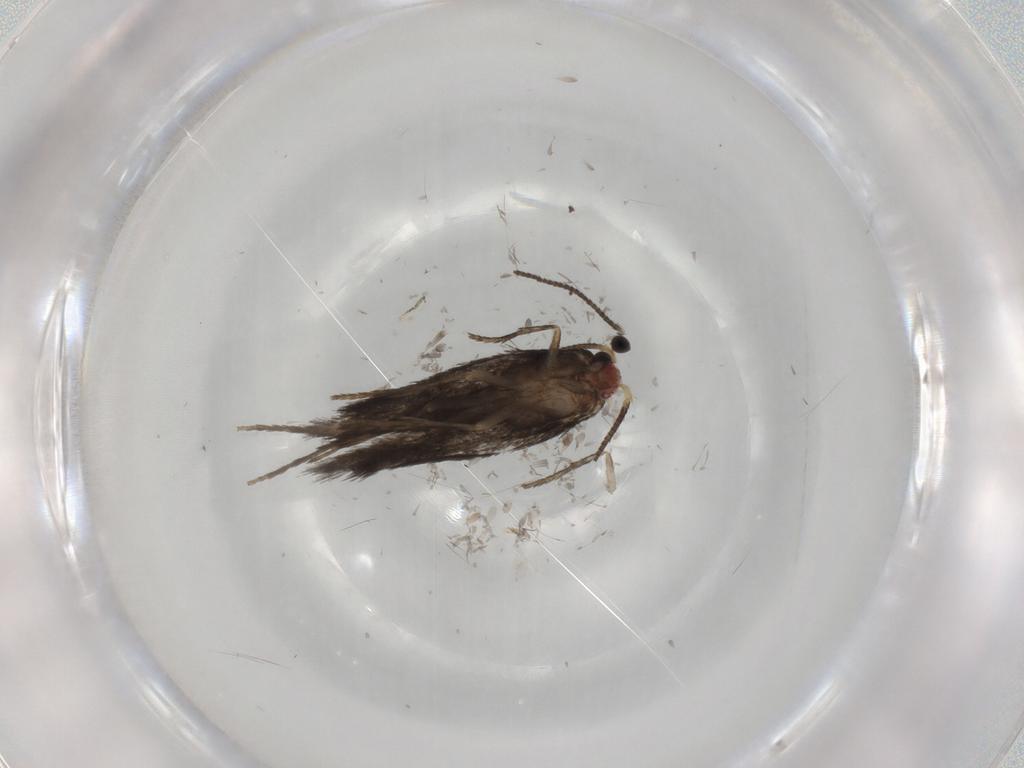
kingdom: Animalia
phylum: Arthropoda
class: Insecta
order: Lepidoptera
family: Nepticulidae
